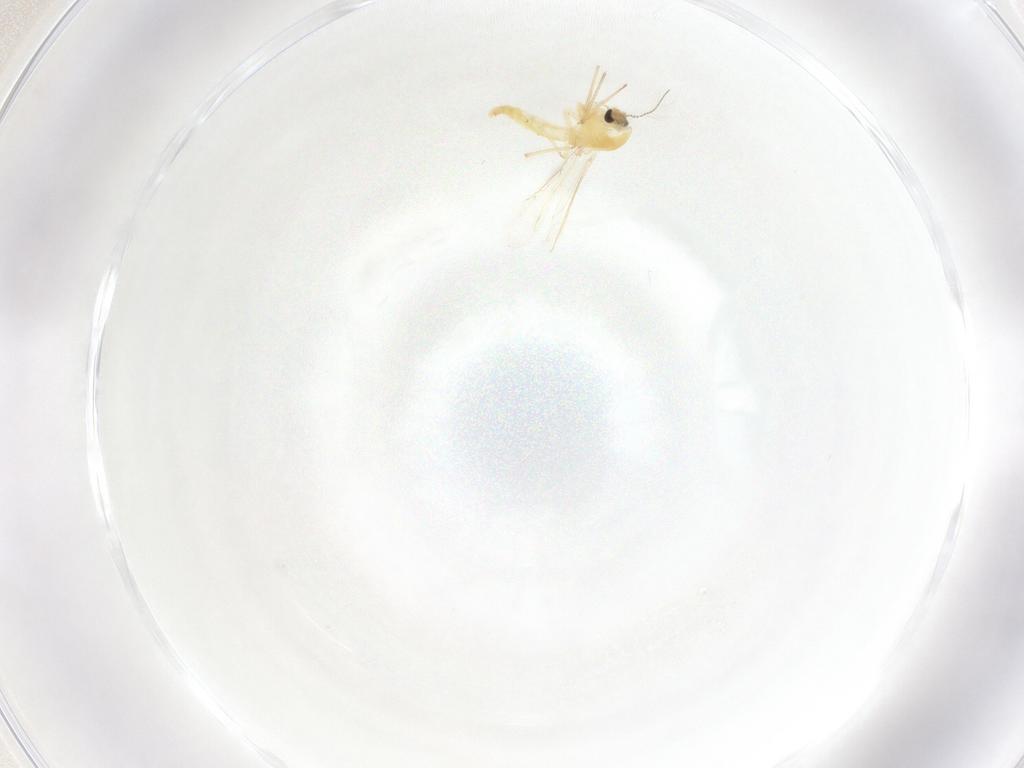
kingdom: Animalia
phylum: Arthropoda
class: Insecta
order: Diptera
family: Chironomidae
